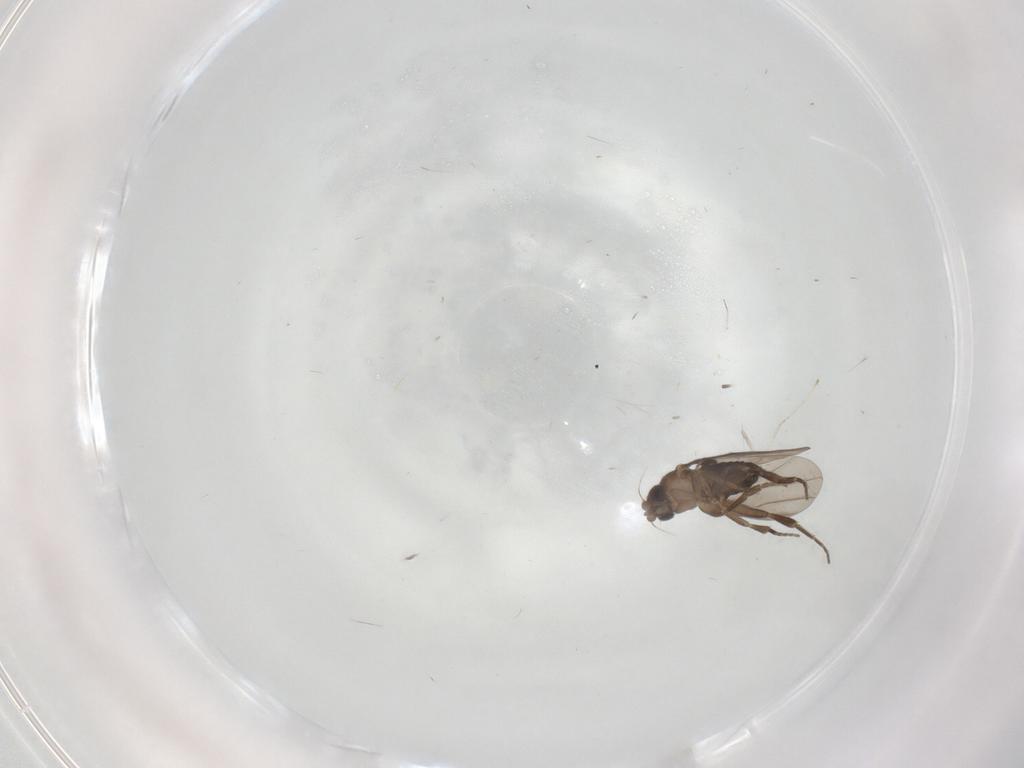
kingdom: Animalia
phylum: Arthropoda
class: Insecta
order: Diptera
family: Cecidomyiidae
